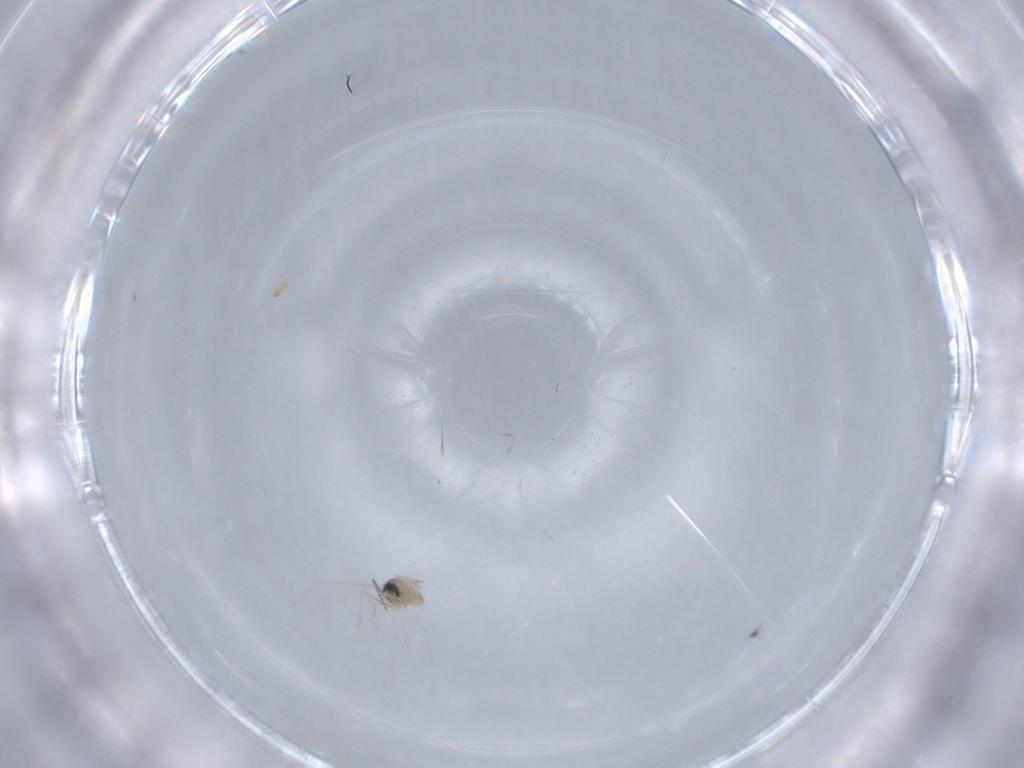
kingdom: Animalia
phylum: Arthropoda
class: Insecta
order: Diptera
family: Cecidomyiidae
